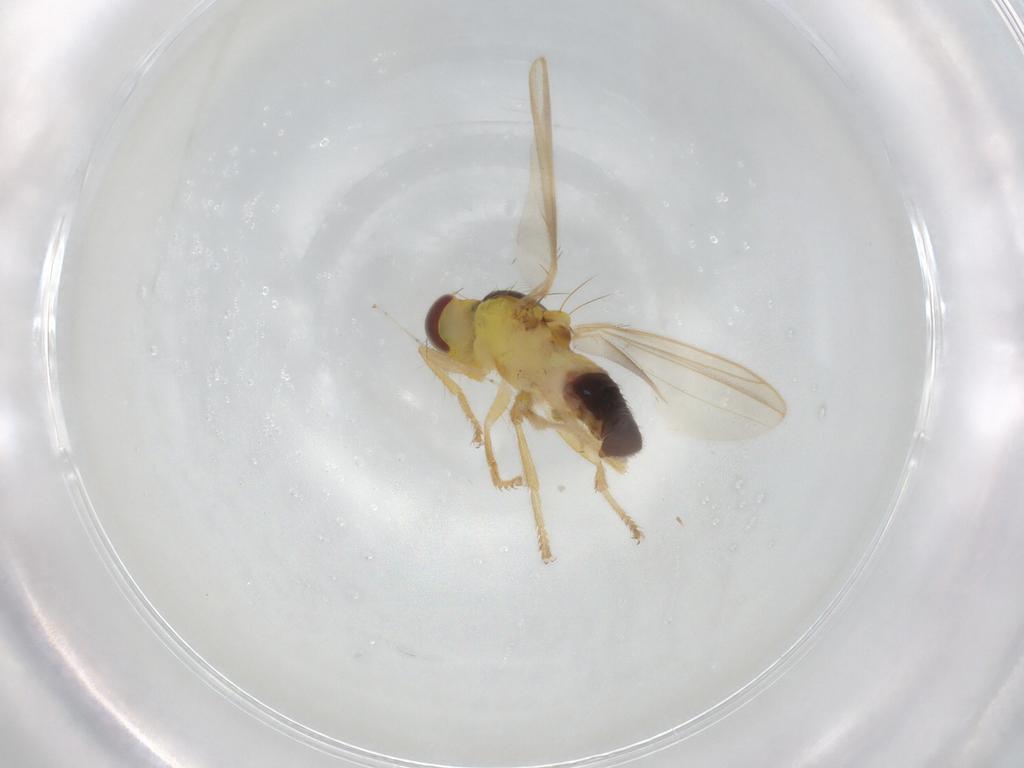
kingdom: Animalia
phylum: Arthropoda
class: Insecta
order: Diptera
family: Periscelididae
